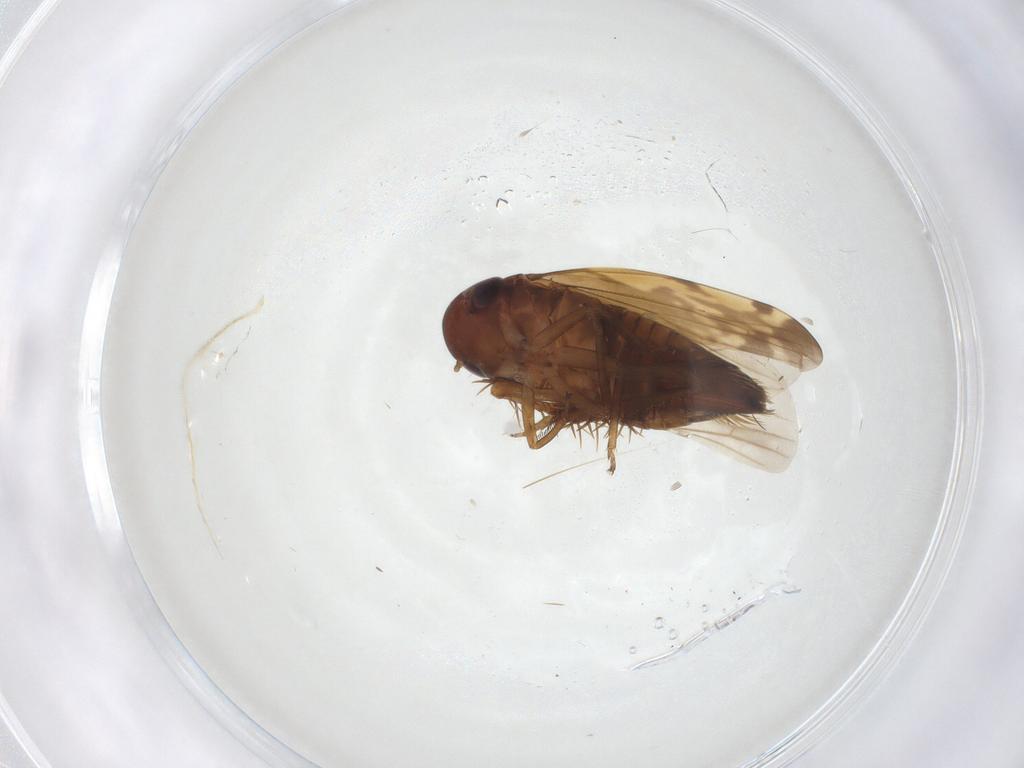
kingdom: Animalia
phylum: Arthropoda
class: Insecta
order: Hemiptera
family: Cicadellidae
